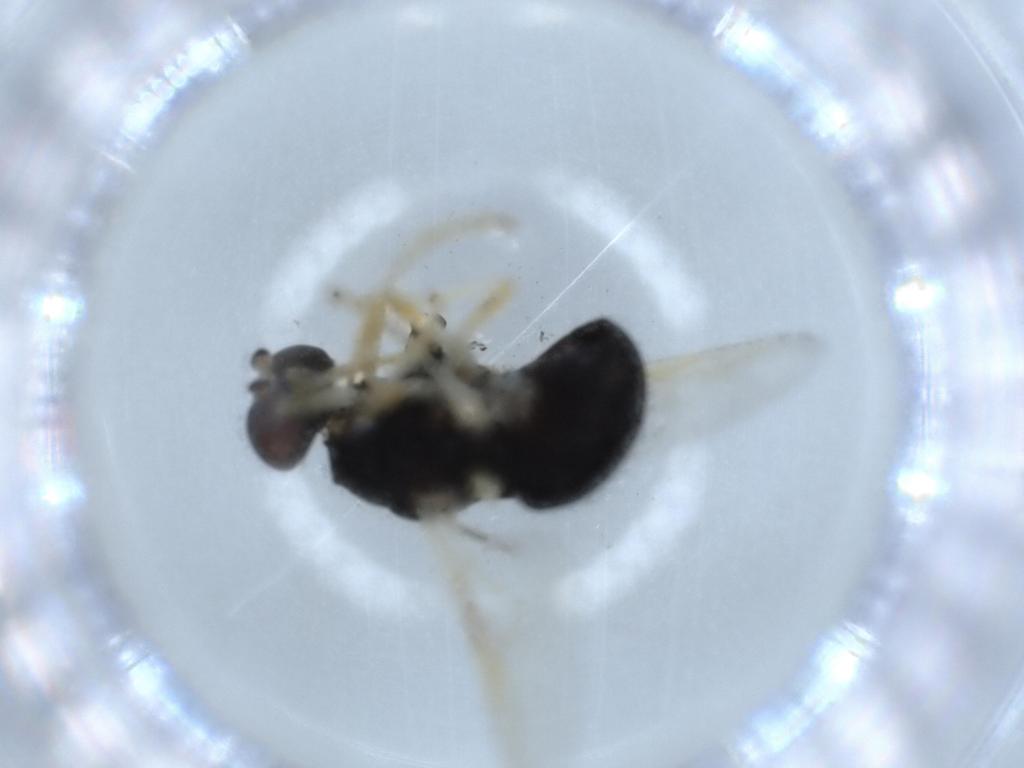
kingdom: Animalia
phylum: Arthropoda
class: Insecta
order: Diptera
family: Stratiomyidae
